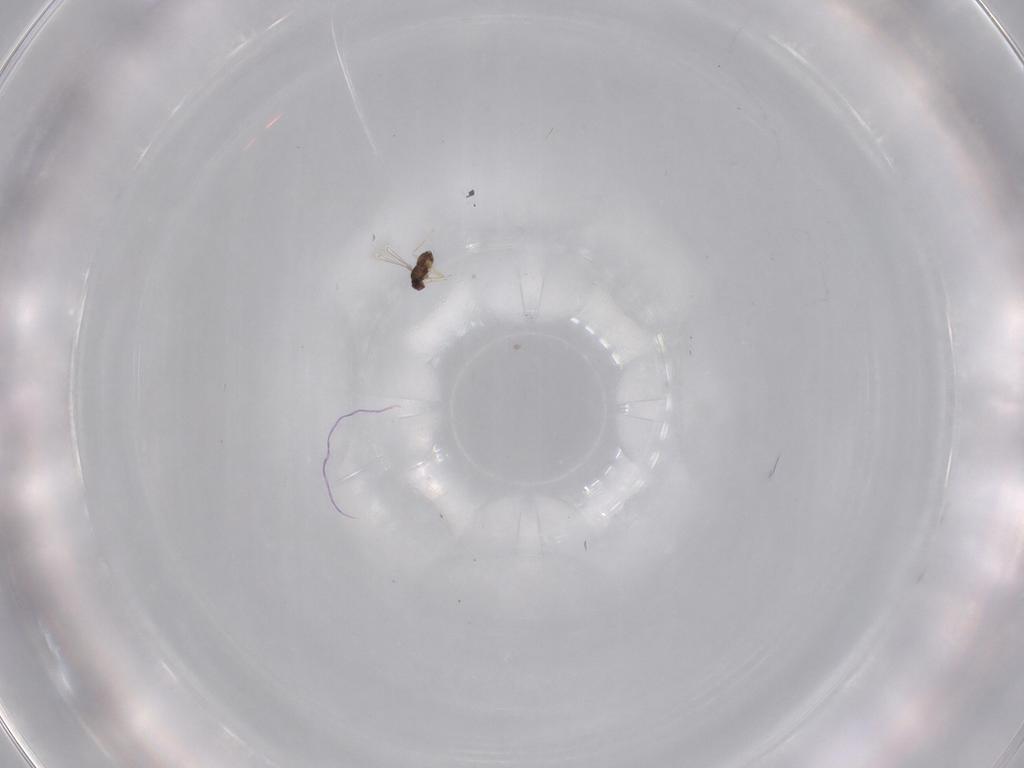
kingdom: Animalia
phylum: Arthropoda
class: Insecta
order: Hymenoptera
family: Mymaridae
